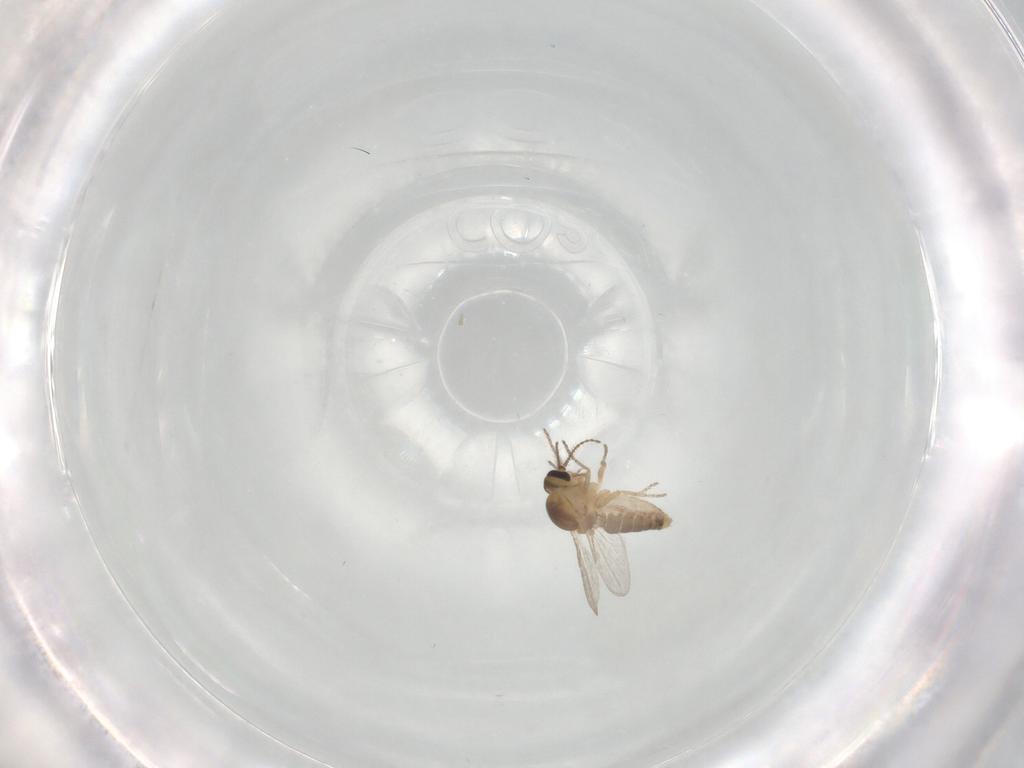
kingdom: Animalia
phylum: Arthropoda
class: Insecta
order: Diptera
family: Ceratopogonidae
